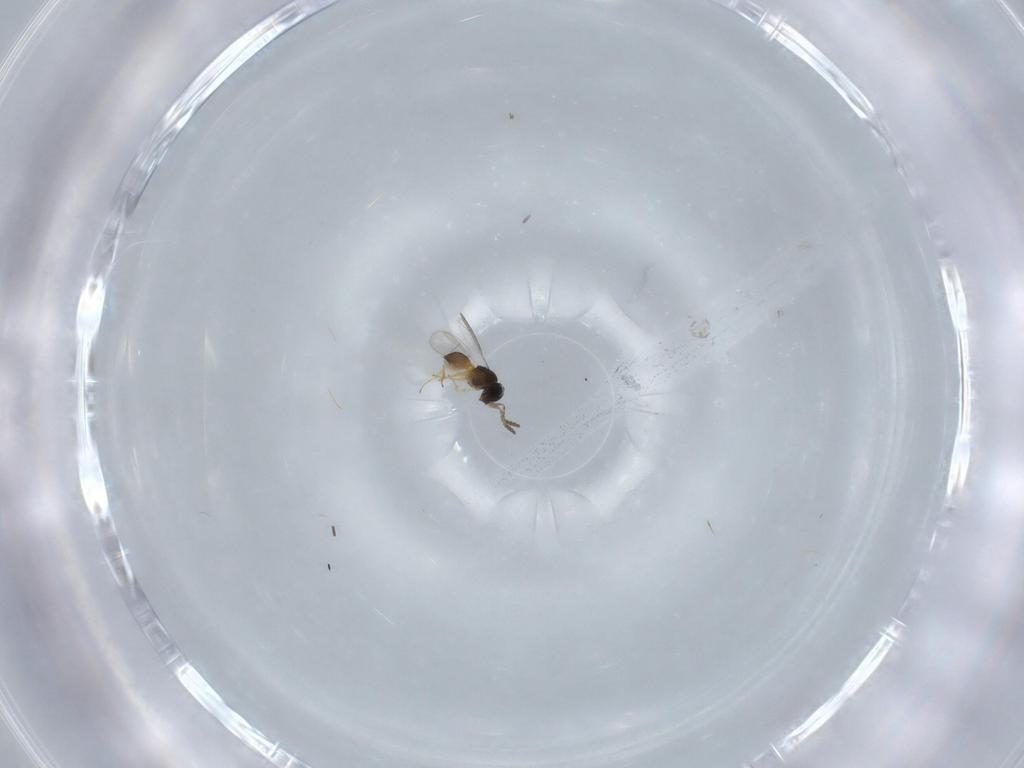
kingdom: Animalia
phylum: Arthropoda
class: Insecta
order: Hymenoptera
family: Scelionidae
